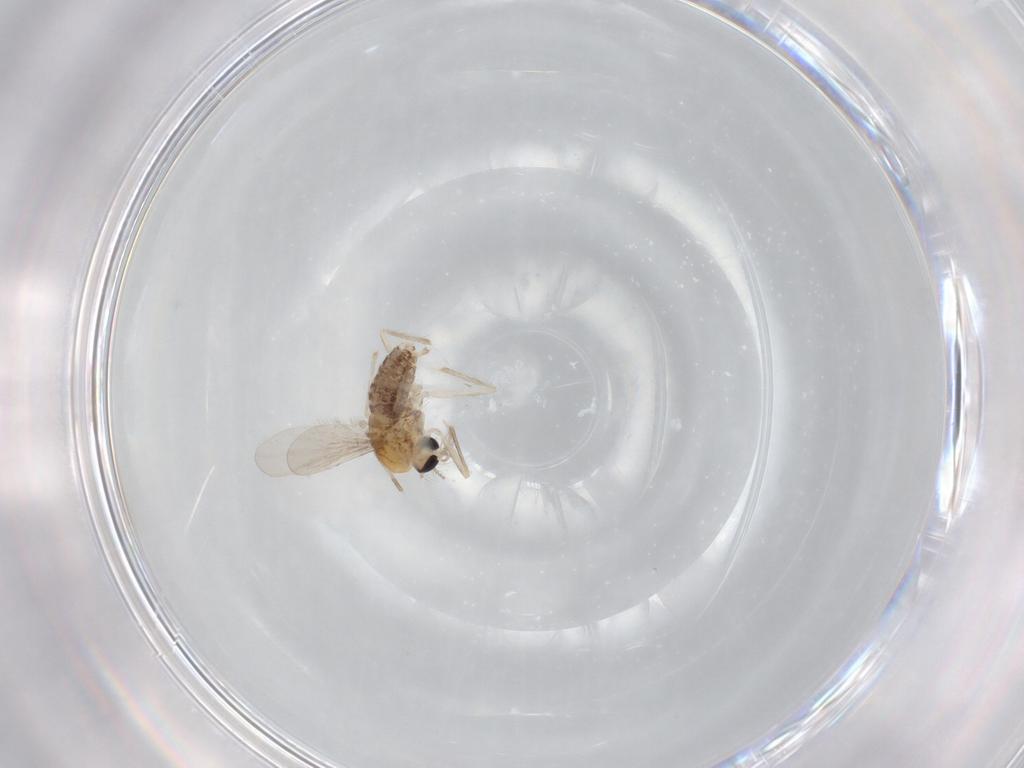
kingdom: Animalia
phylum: Arthropoda
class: Insecta
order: Diptera
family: Chironomidae
